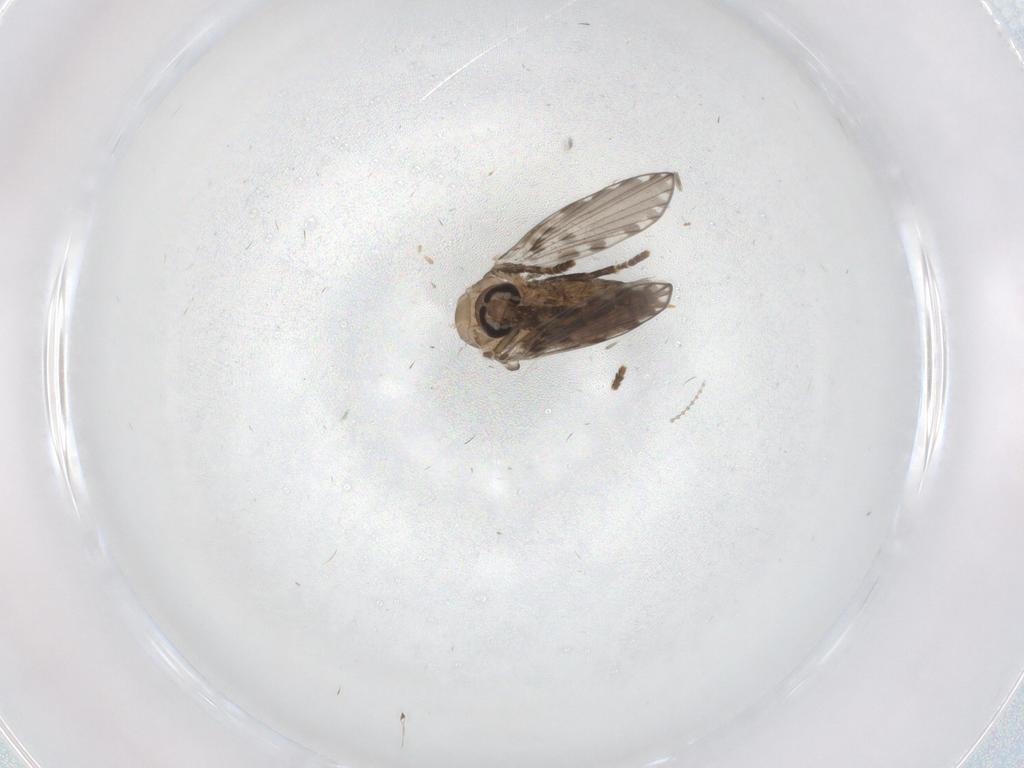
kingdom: Animalia
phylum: Arthropoda
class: Insecta
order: Diptera
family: Psychodidae
